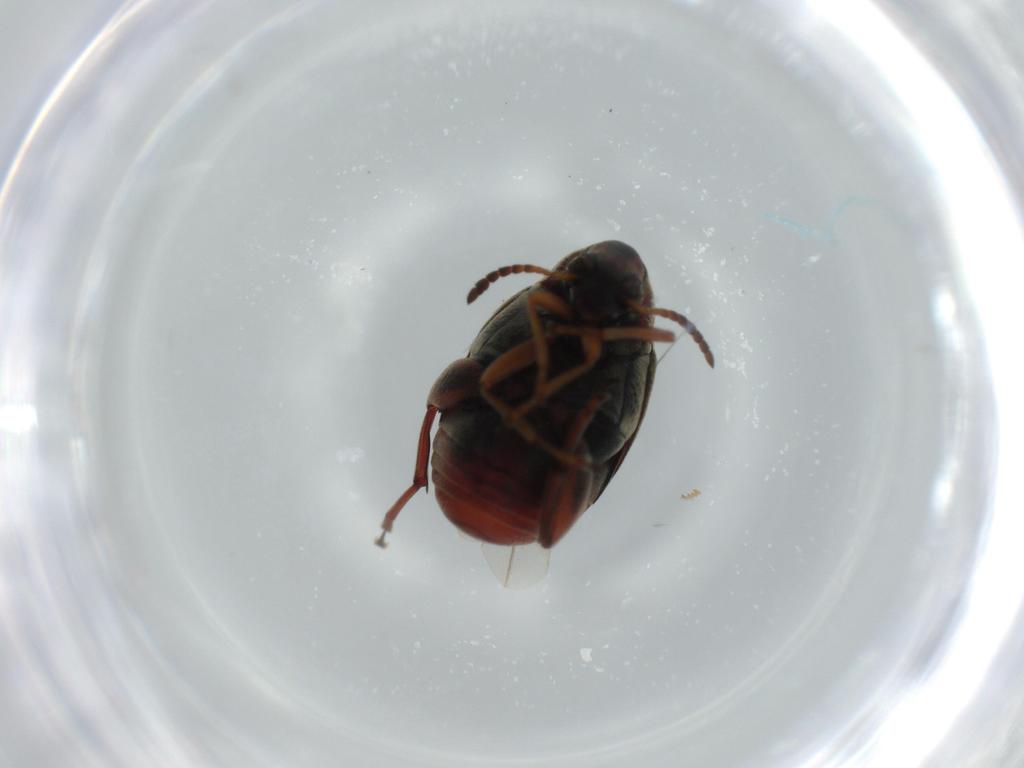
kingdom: Animalia
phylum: Arthropoda
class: Insecta
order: Coleoptera
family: Chrysomelidae
